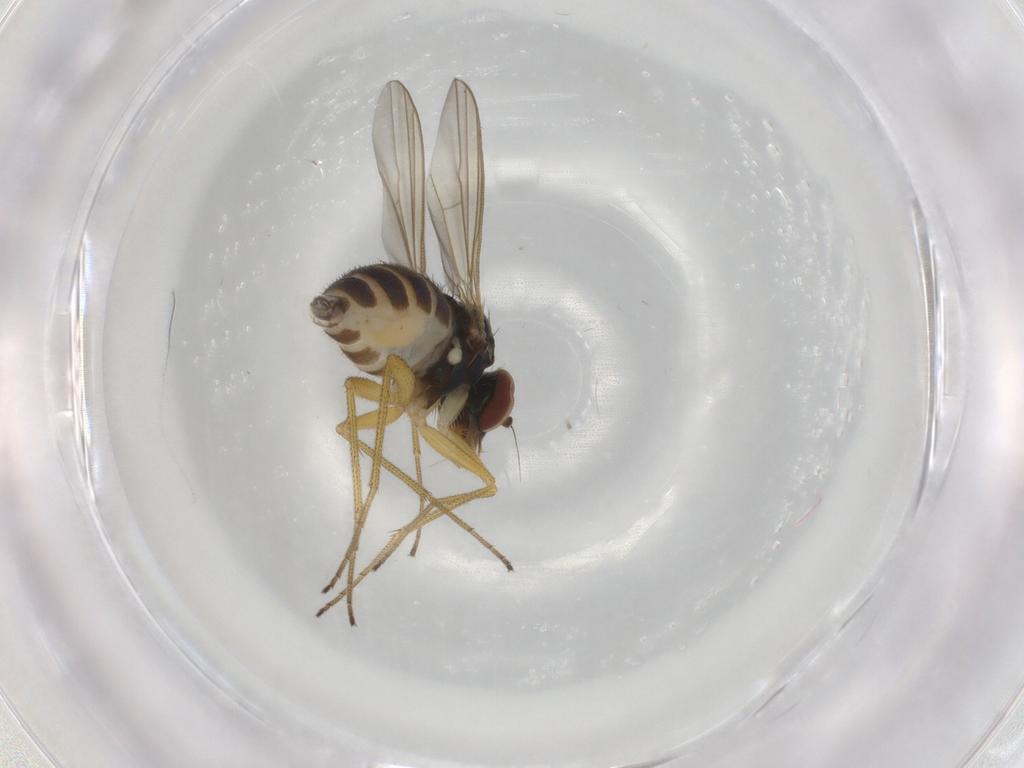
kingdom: Animalia
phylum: Arthropoda
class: Insecta
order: Diptera
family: Dolichopodidae
